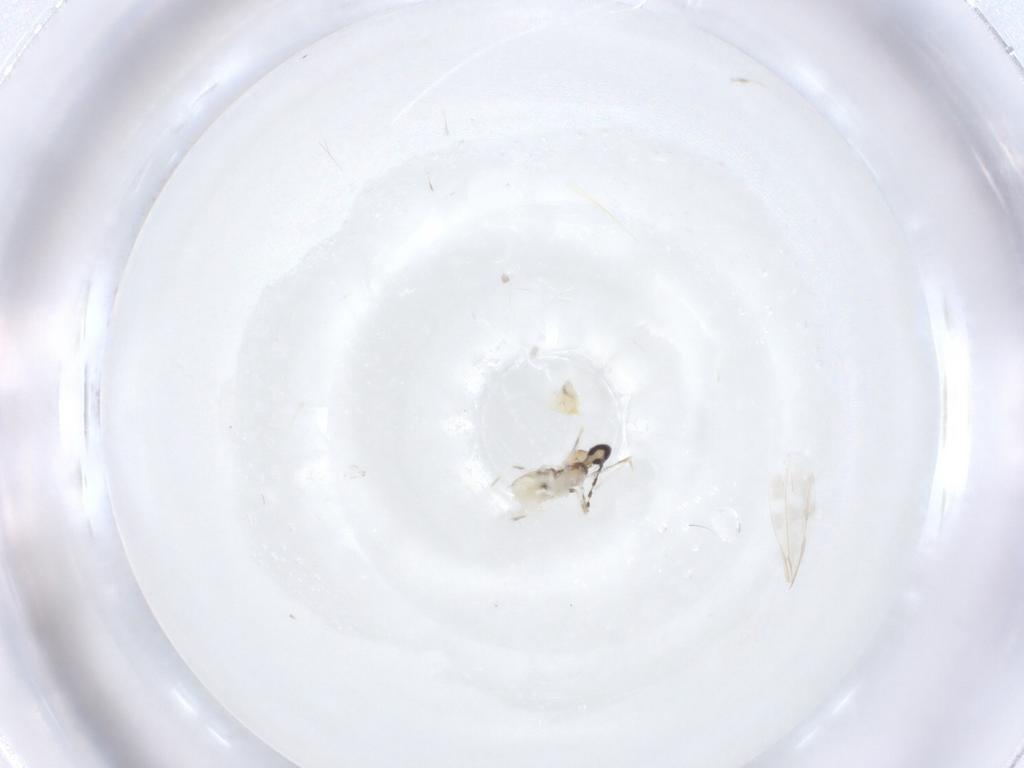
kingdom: Animalia
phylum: Arthropoda
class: Insecta
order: Diptera
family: Cecidomyiidae
